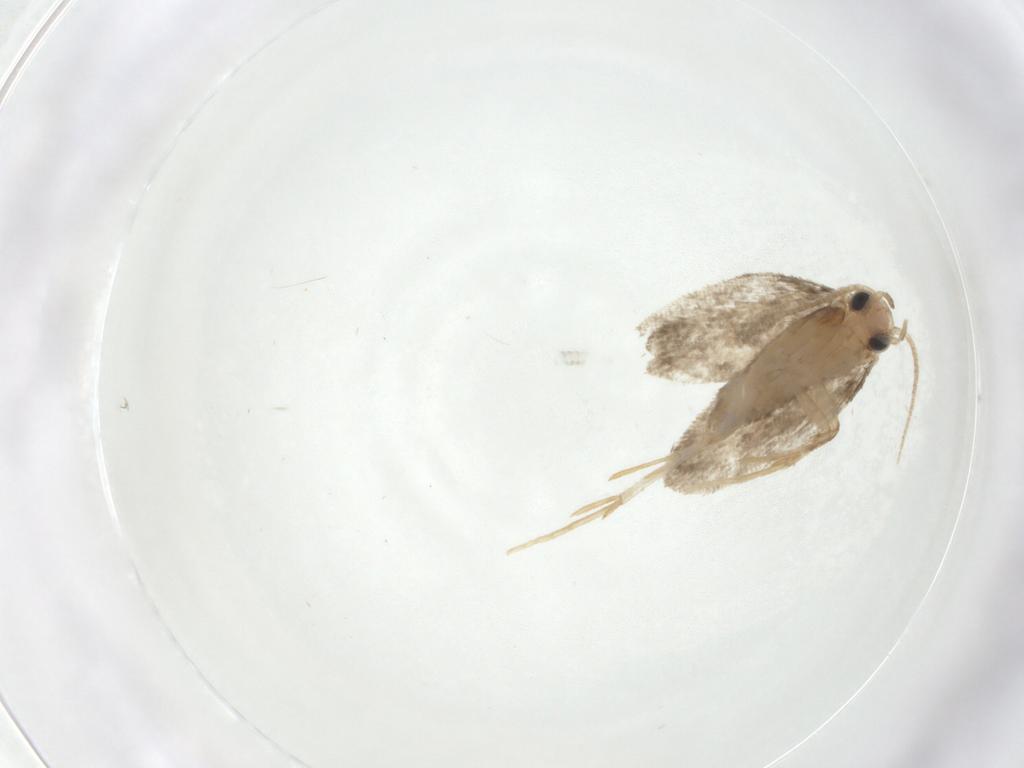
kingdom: Animalia
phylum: Arthropoda
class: Insecta
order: Lepidoptera
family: Psychidae
